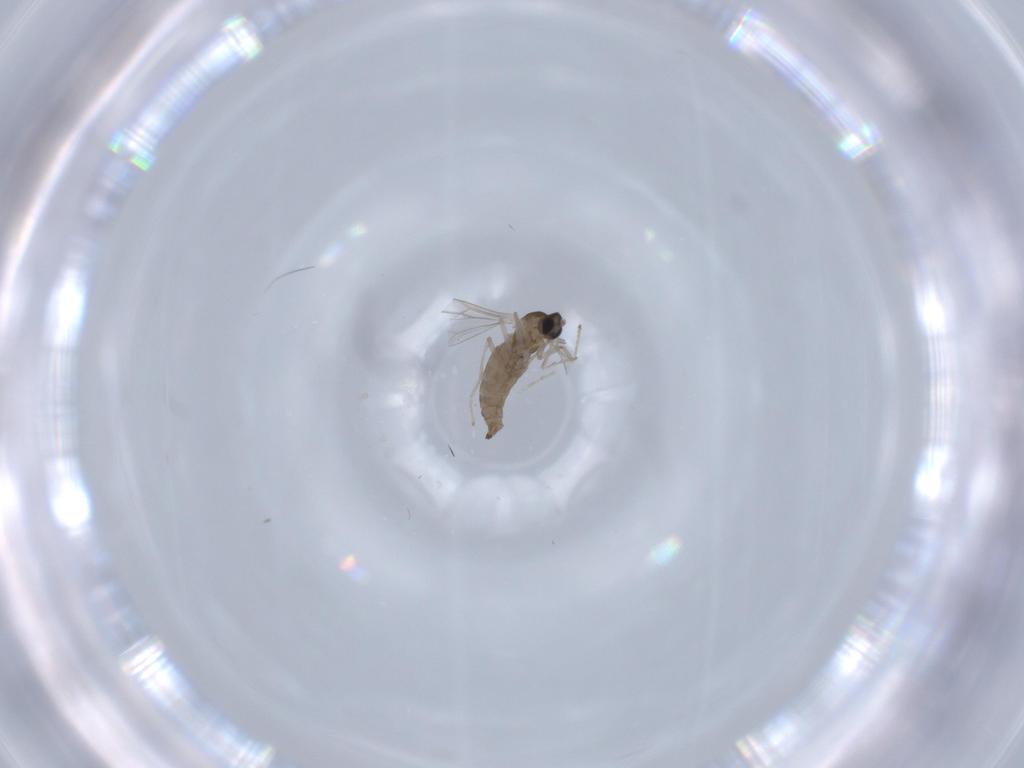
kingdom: Animalia
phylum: Arthropoda
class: Insecta
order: Diptera
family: Cecidomyiidae
